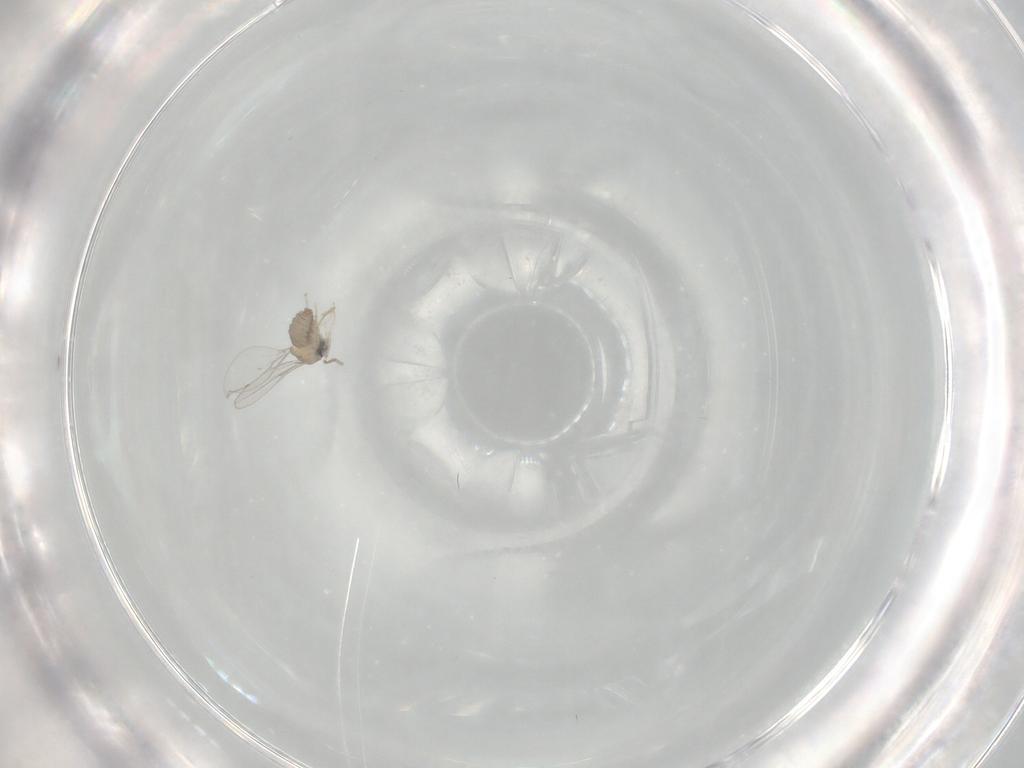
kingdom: Animalia
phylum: Arthropoda
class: Insecta
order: Diptera
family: Cecidomyiidae
